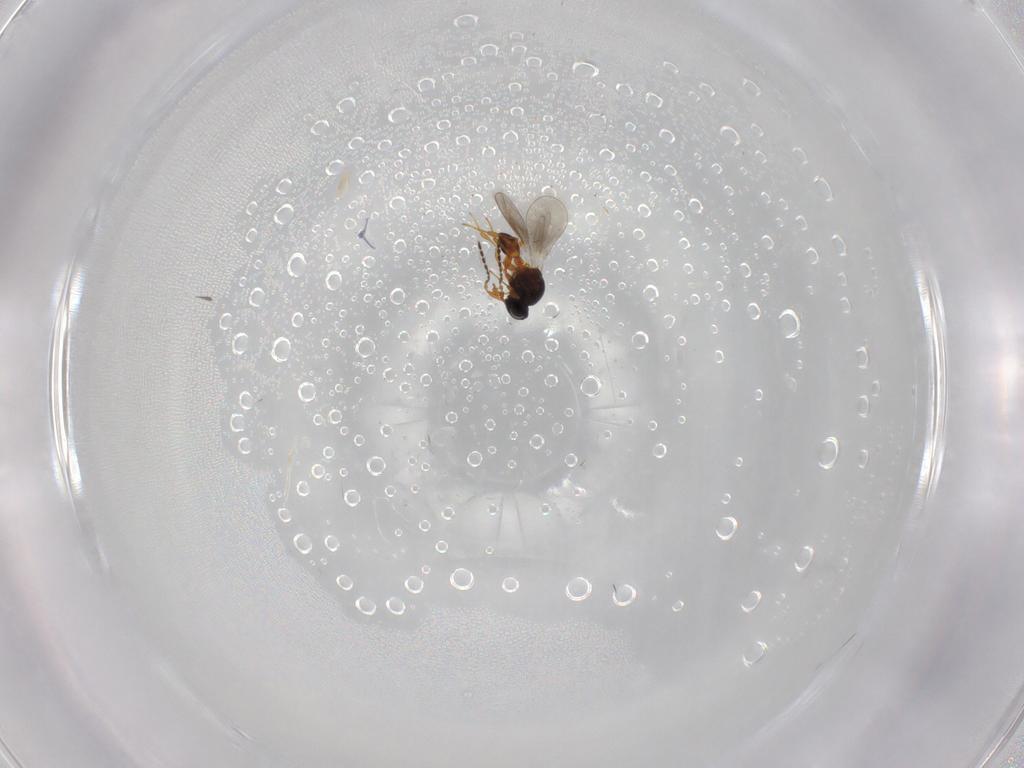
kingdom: Animalia
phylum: Arthropoda
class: Insecta
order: Hymenoptera
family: Platygastridae
